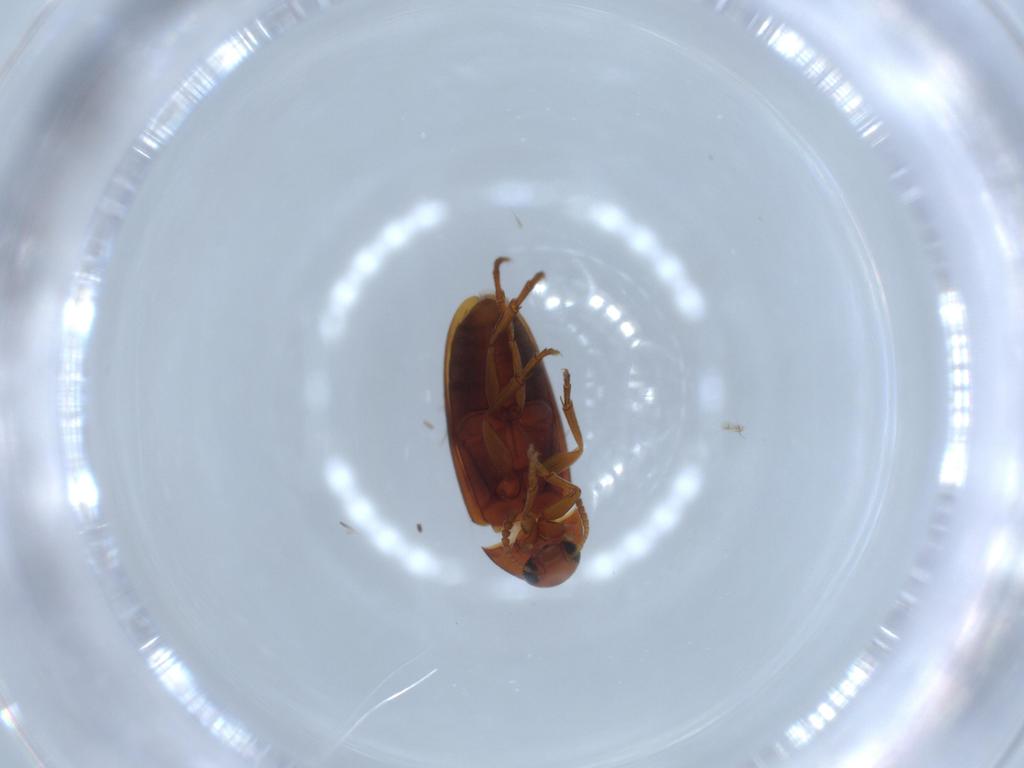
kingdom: Animalia
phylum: Arthropoda
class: Insecta
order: Coleoptera
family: Scraptiidae
